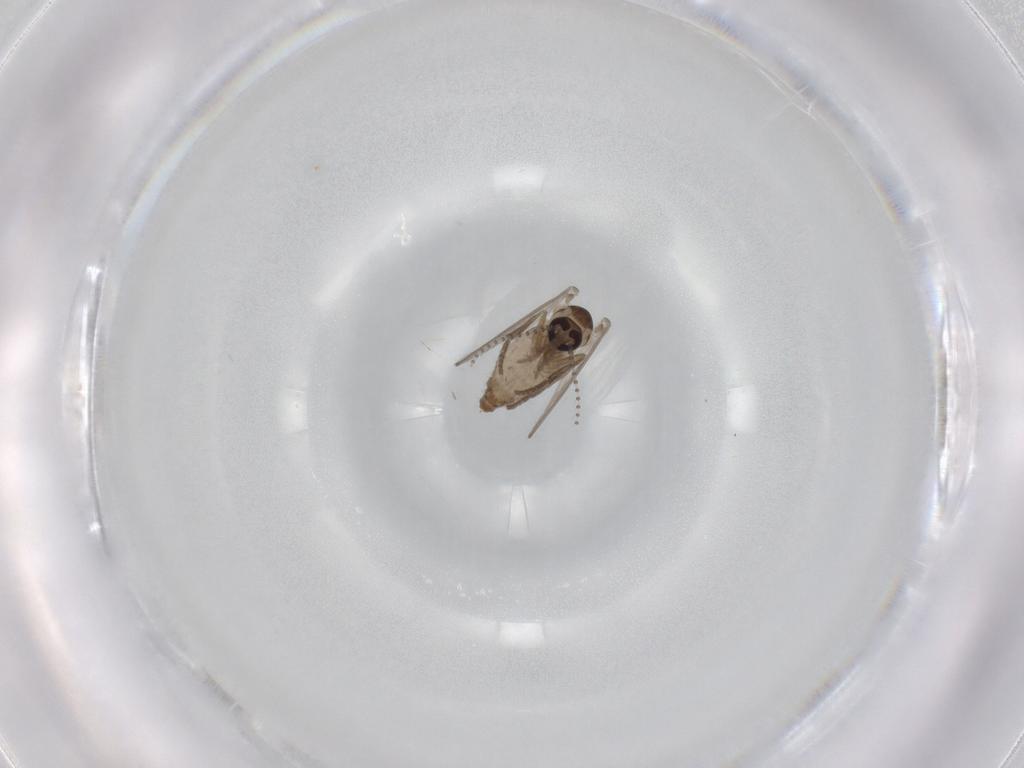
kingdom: Animalia
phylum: Arthropoda
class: Insecta
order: Diptera
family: Psychodidae
